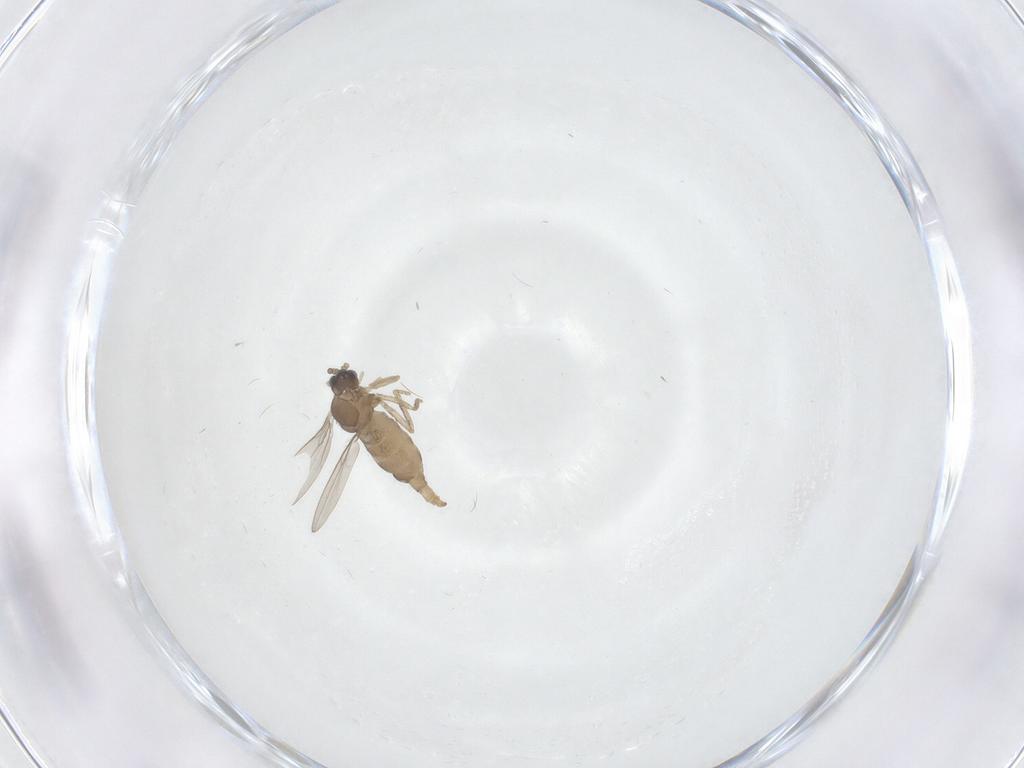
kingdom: Animalia
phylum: Arthropoda
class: Insecta
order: Diptera
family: Cecidomyiidae
